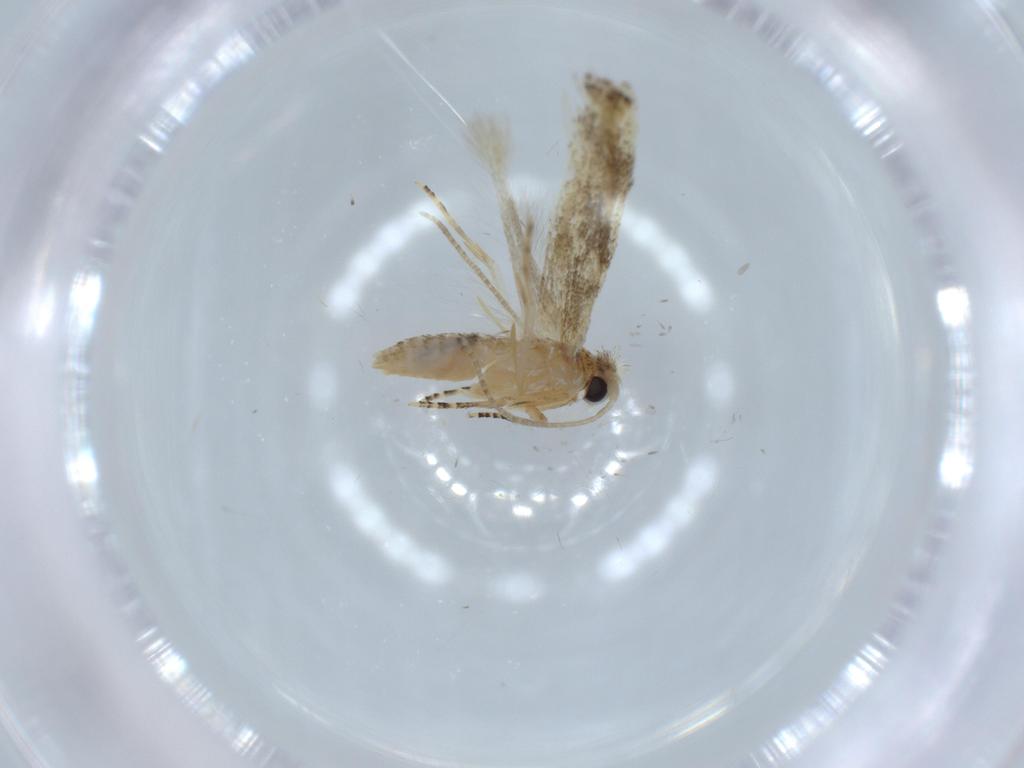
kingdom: Animalia
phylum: Arthropoda
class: Insecta
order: Lepidoptera
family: Bucculatricidae
